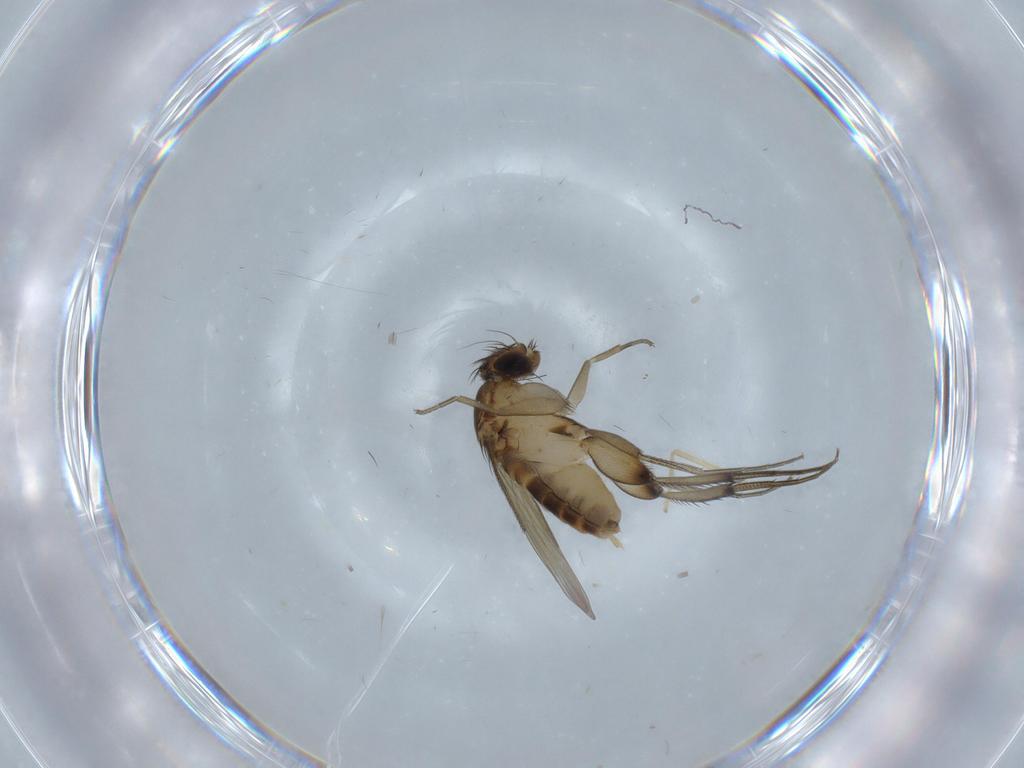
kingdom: Animalia
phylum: Arthropoda
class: Insecta
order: Diptera
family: Phoridae
